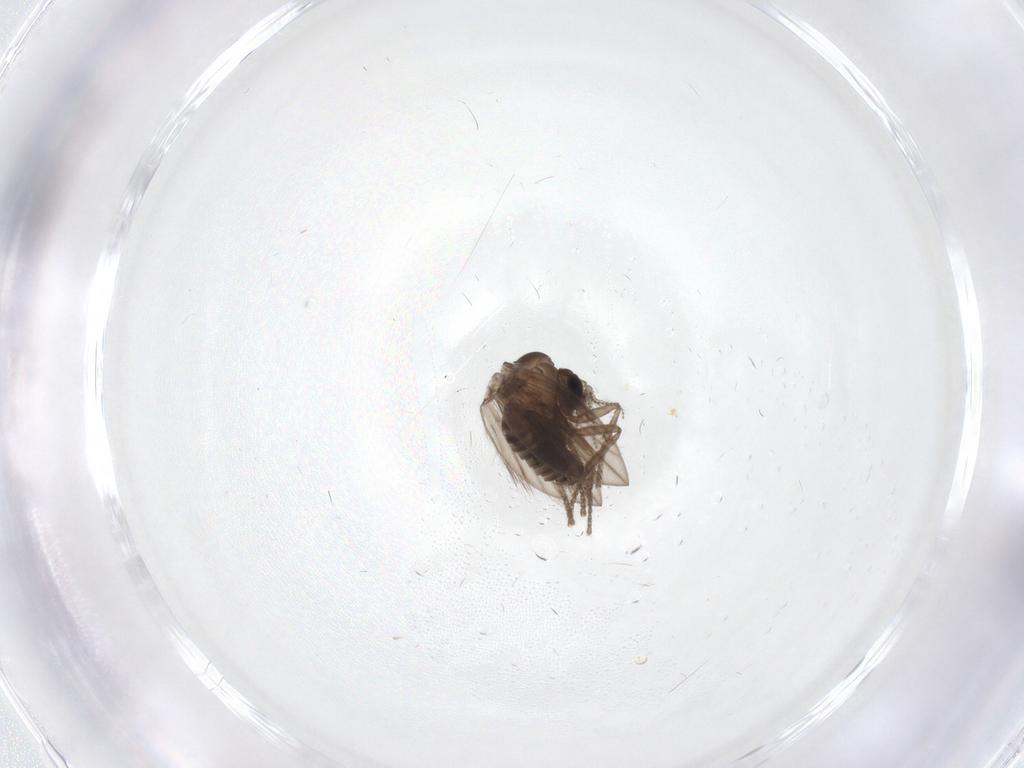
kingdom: Animalia
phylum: Arthropoda
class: Insecta
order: Diptera
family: Psychodidae
